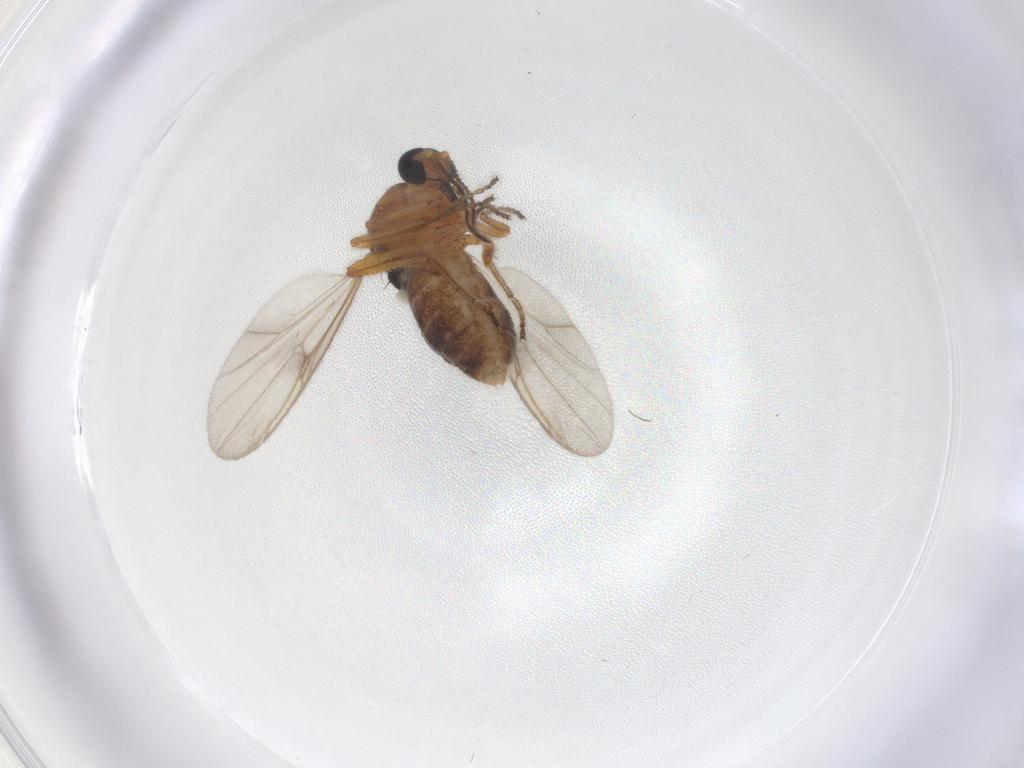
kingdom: Animalia
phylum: Arthropoda
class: Insecta
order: Diptera
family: Ceratopogonidae
